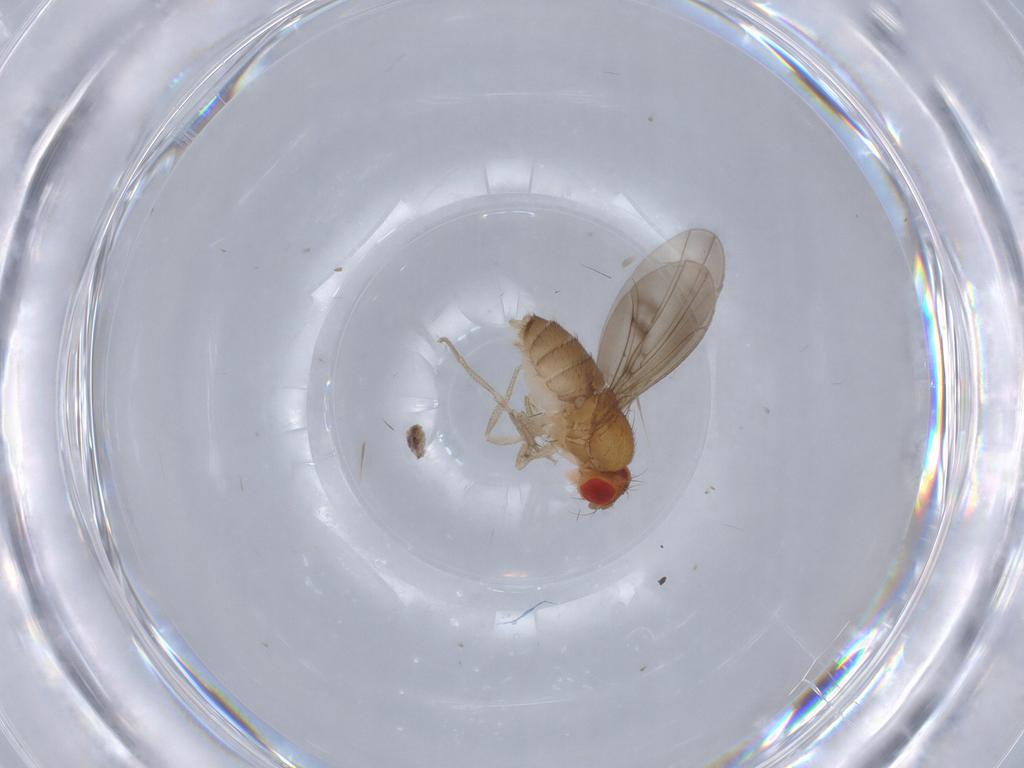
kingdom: Animalia
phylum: Arthropoda
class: Insecta
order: Diptera
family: Drosophilidae
